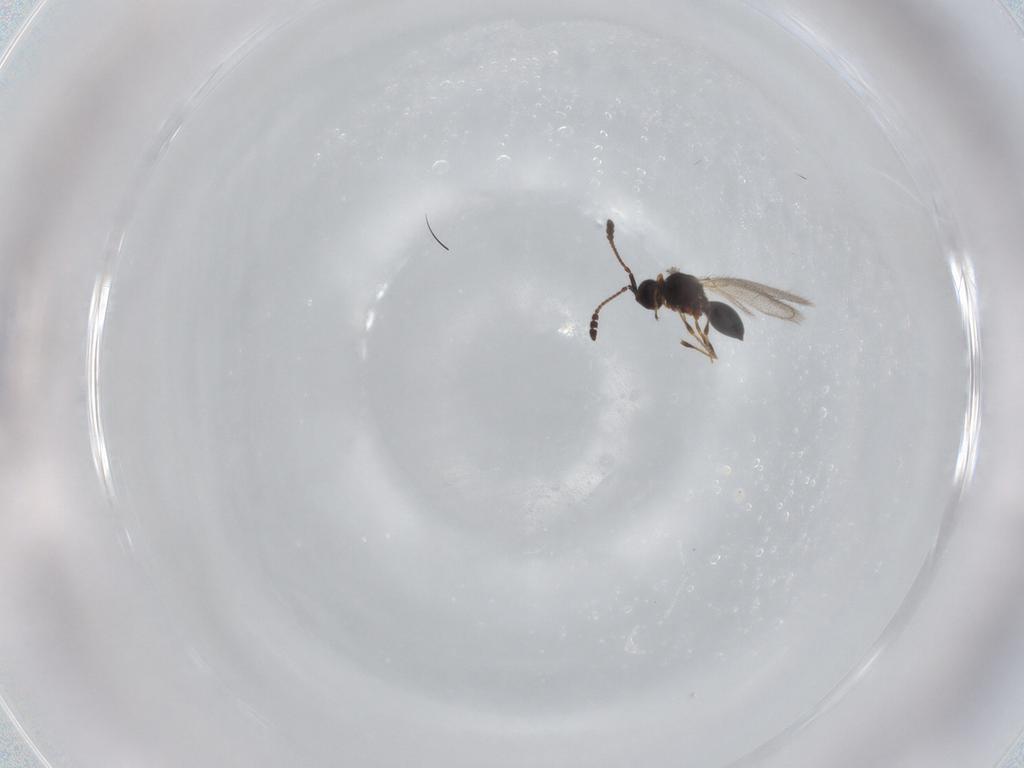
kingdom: Animalia
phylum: Arthropoda
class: Insecta
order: Hymenoptera
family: Diapriidae
